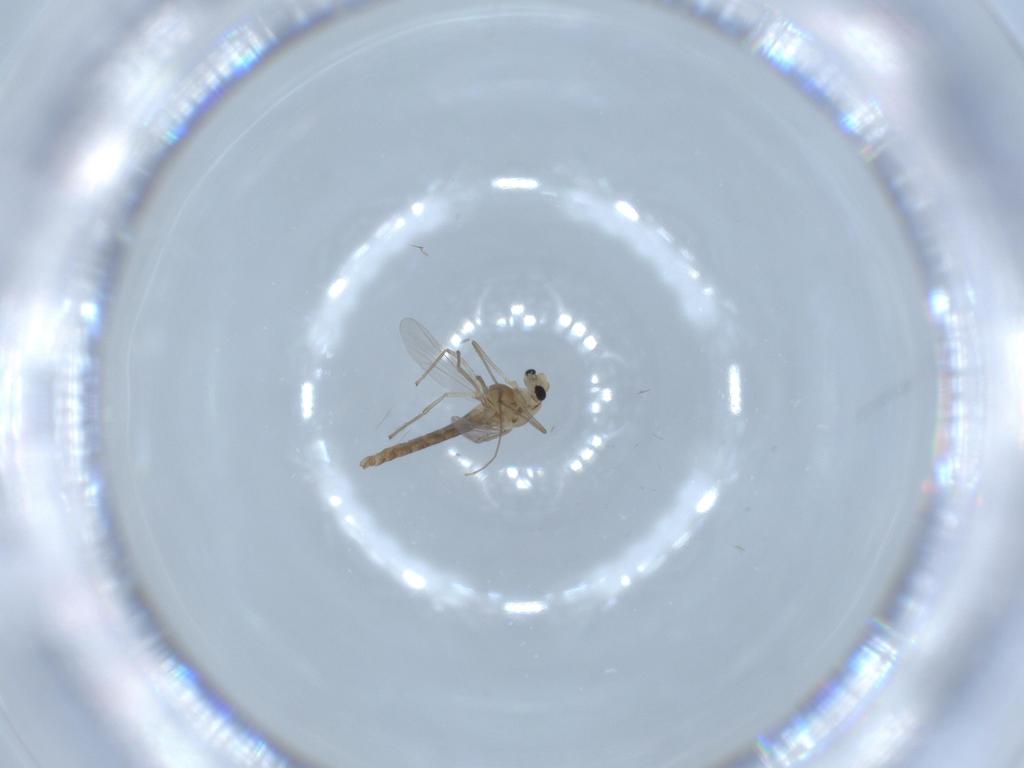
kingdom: Animalia
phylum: Arthropoda
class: Insecta
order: Diptera
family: Chironomidae
